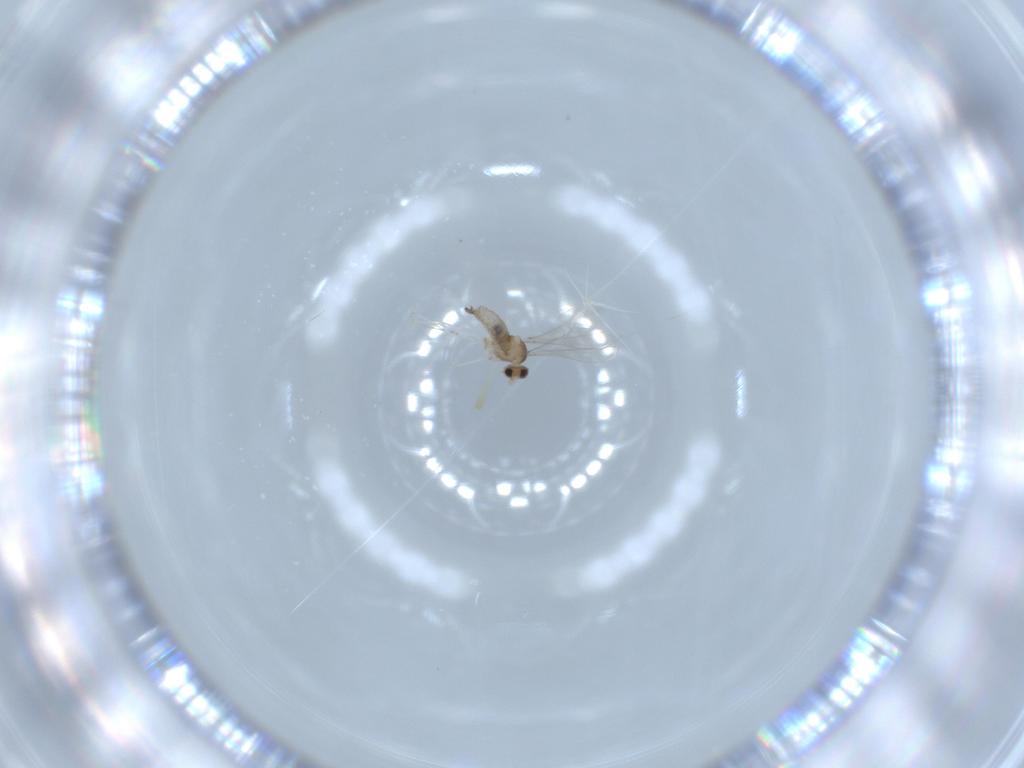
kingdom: Animalia
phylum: Arthropoda
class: Insecta
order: Diptera
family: Cecidomyiidae
